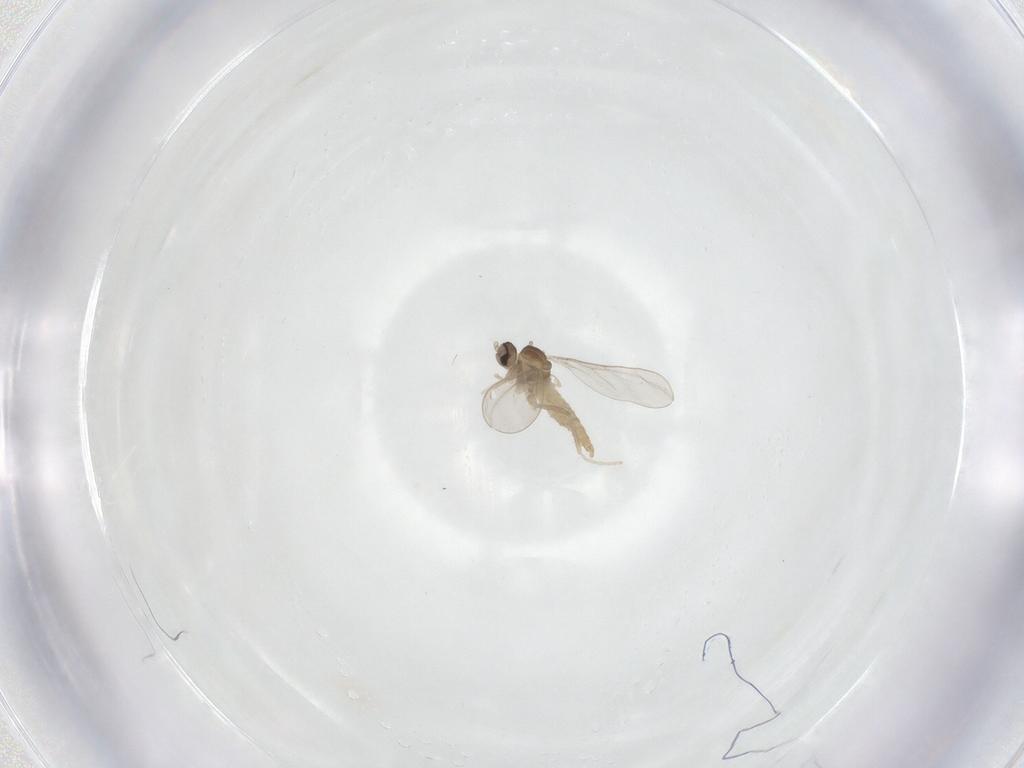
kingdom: Animalia
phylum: Arthropoda
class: Insecta
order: Diptera
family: Cecidomyiidae
